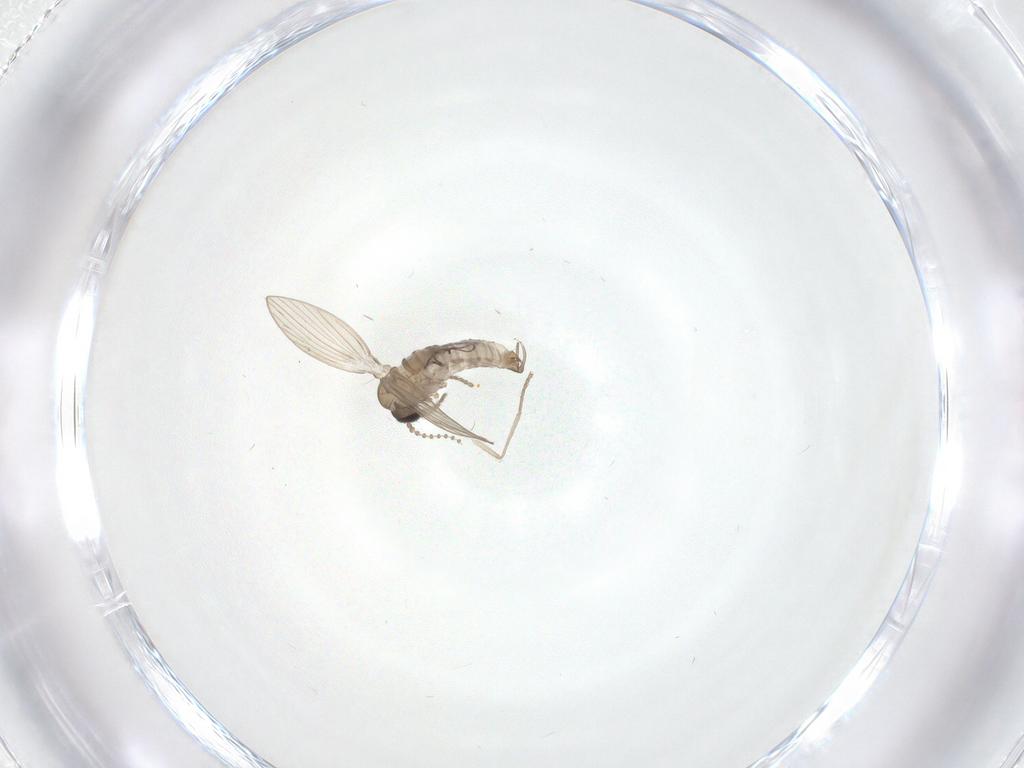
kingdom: Animalia
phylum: Arthropoda
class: Insecta
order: Diptera
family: Psychodidae
